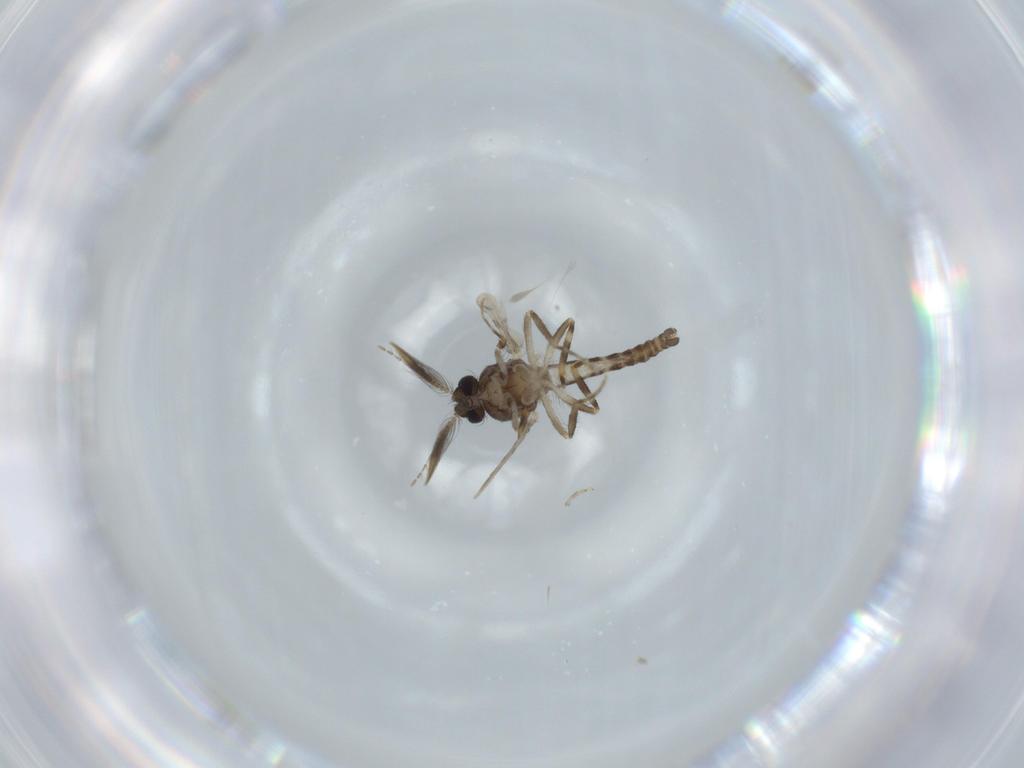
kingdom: Animalia
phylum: Arthropoda
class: Insecta
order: Diptera
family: Ceratopogonidae
